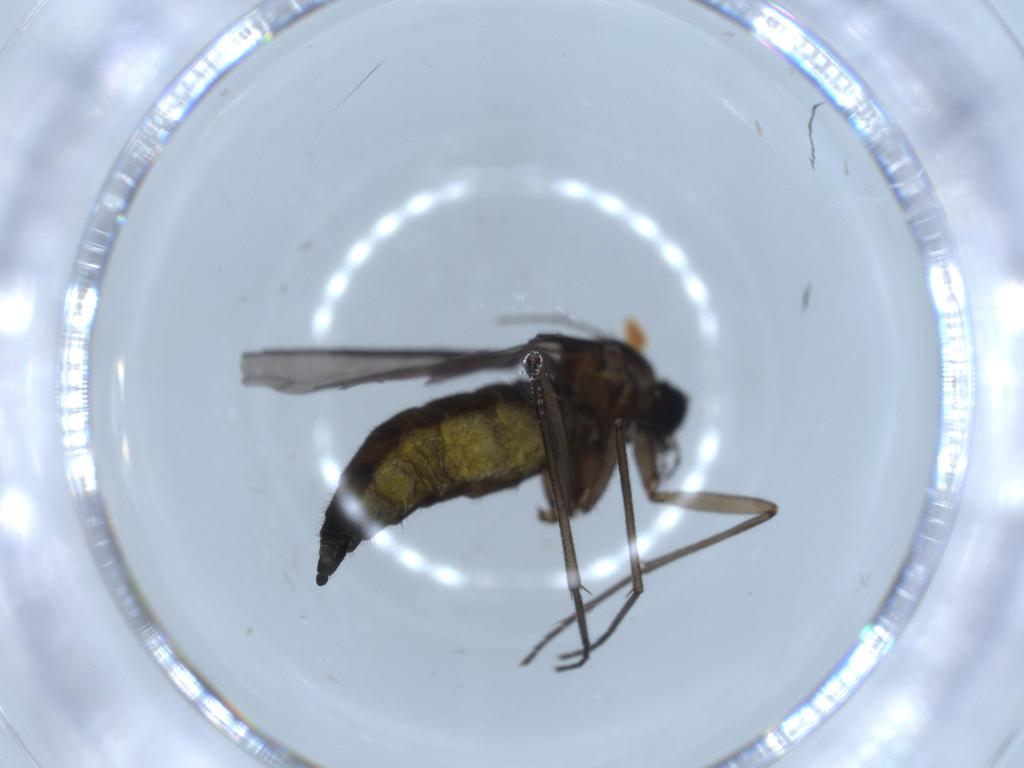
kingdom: Animalia
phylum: Arthropoda
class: Insecta
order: Diptera
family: Sciaridae
